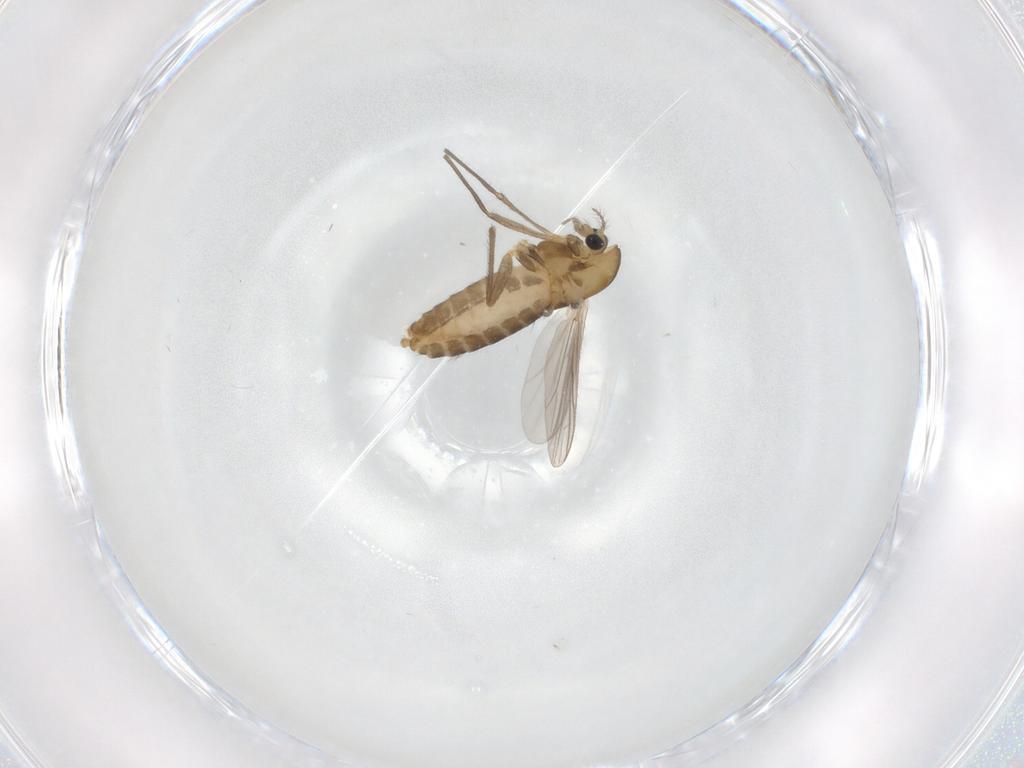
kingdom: Animalia
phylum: Arthropoda
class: Insecta
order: Diptera
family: Chironomidae
